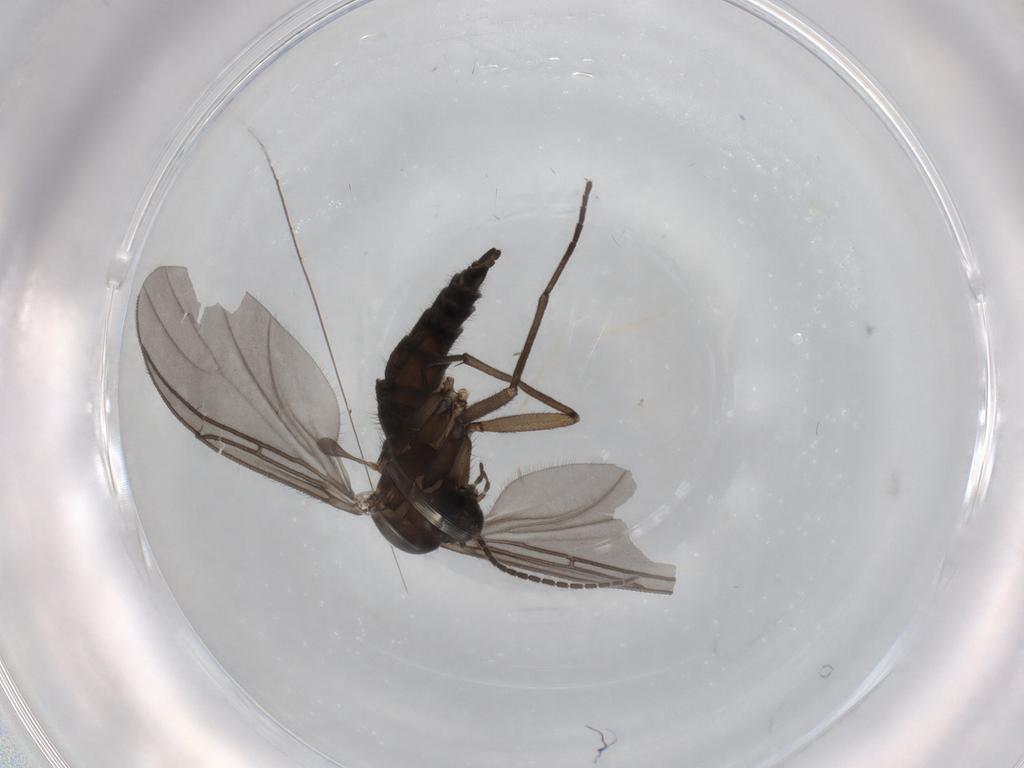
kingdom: Animalia
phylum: Arthropoda
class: Insecta
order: Diptera
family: Sciaridae
